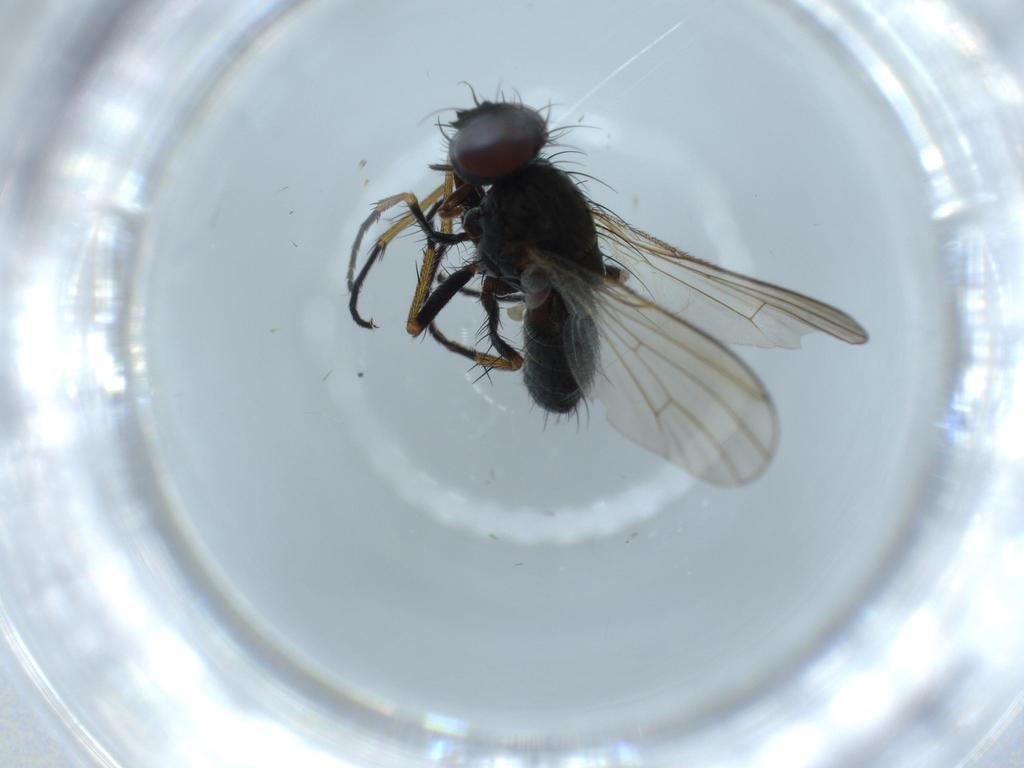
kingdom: Animalia
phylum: Arthropoda
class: Insecta
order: Diptera
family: Muscidae
